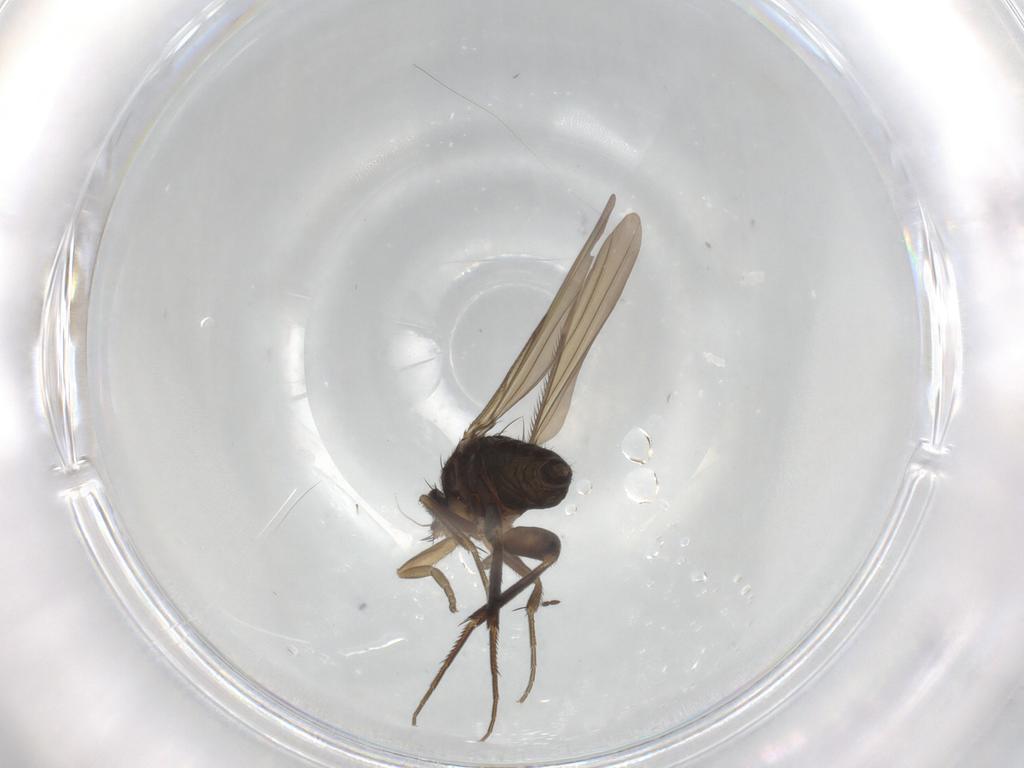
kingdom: Animalia
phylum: Arthropoda
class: Insecta
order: Diptera
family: Phoridae
